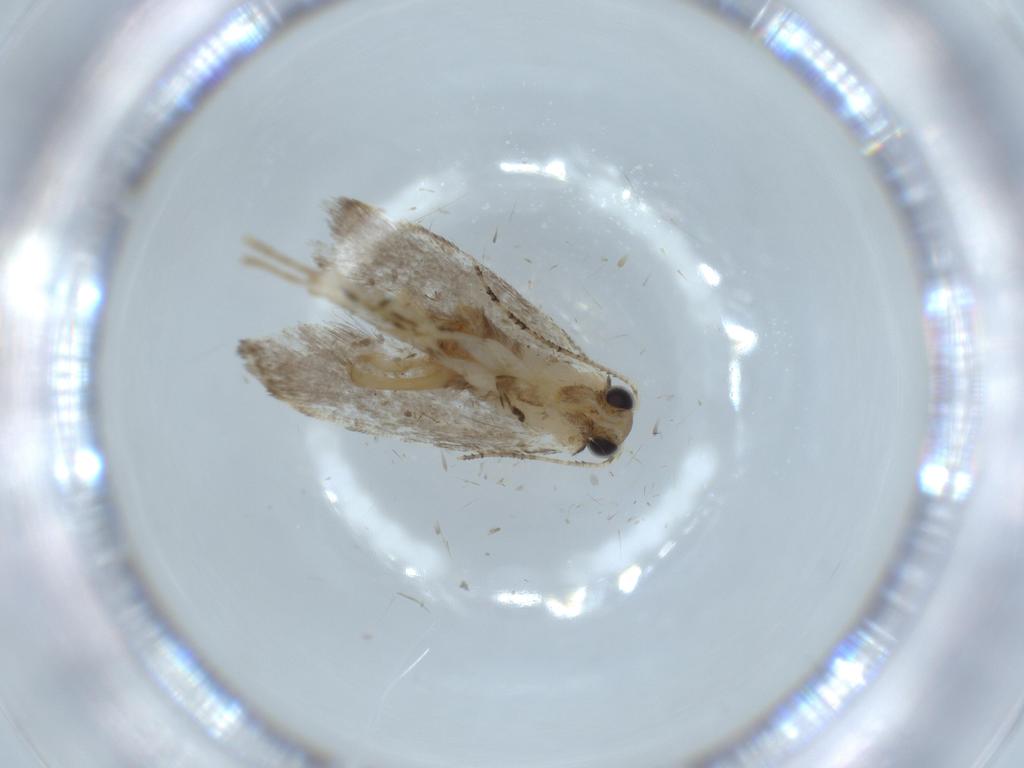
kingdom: Animalia
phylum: Arthropoda
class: Insecta
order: Lepidoptera
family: Tineidae
